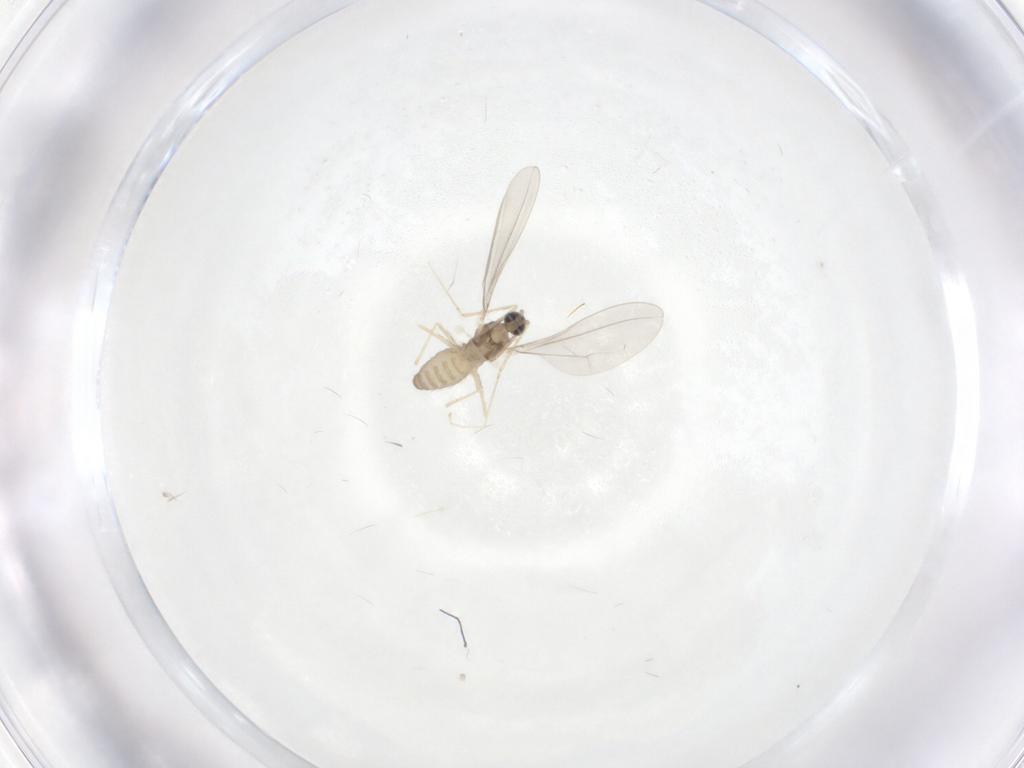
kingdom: Animalia
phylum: Arthropoda
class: Insecta
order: Diptera
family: Cecidomyiidae
